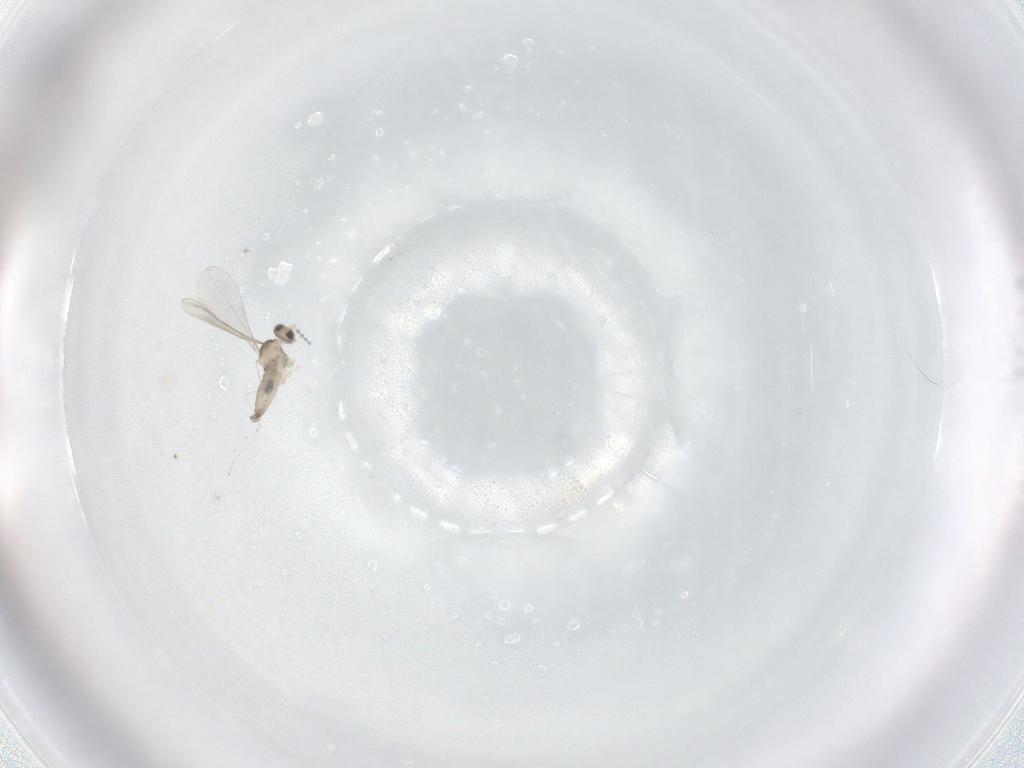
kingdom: Animalia
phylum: Arthropoda
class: Insecta
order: Diptera
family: Cecidomyiidae
